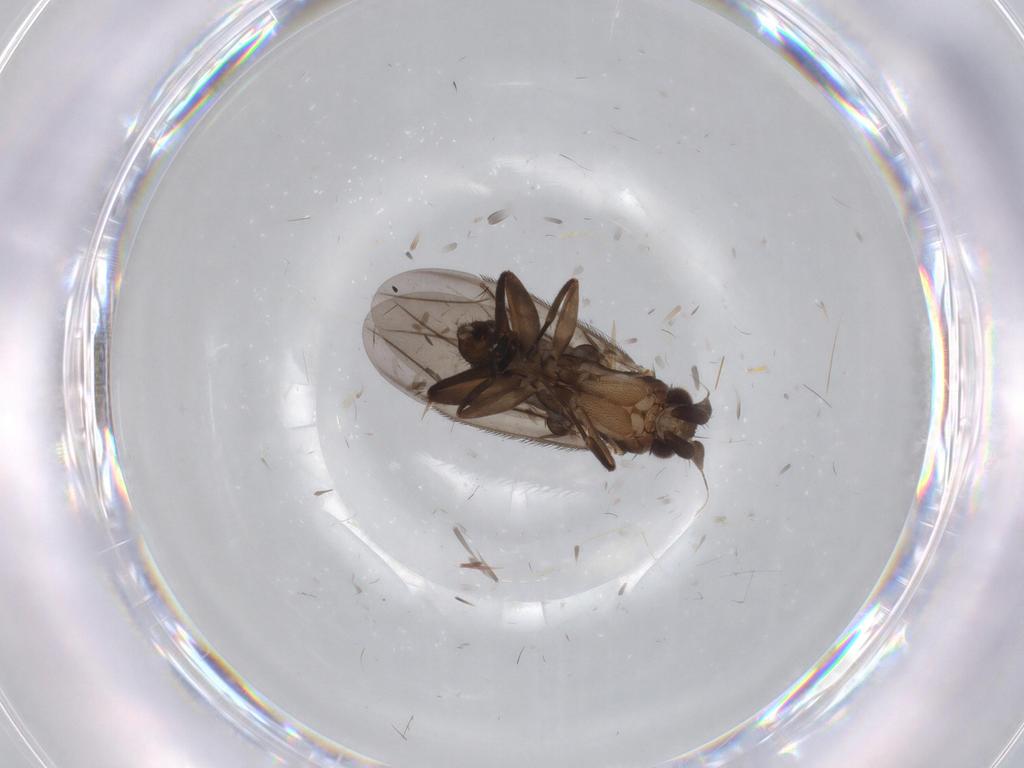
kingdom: Animalia
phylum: Arthropoda
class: Insecta
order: Diptera
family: Phoridae
